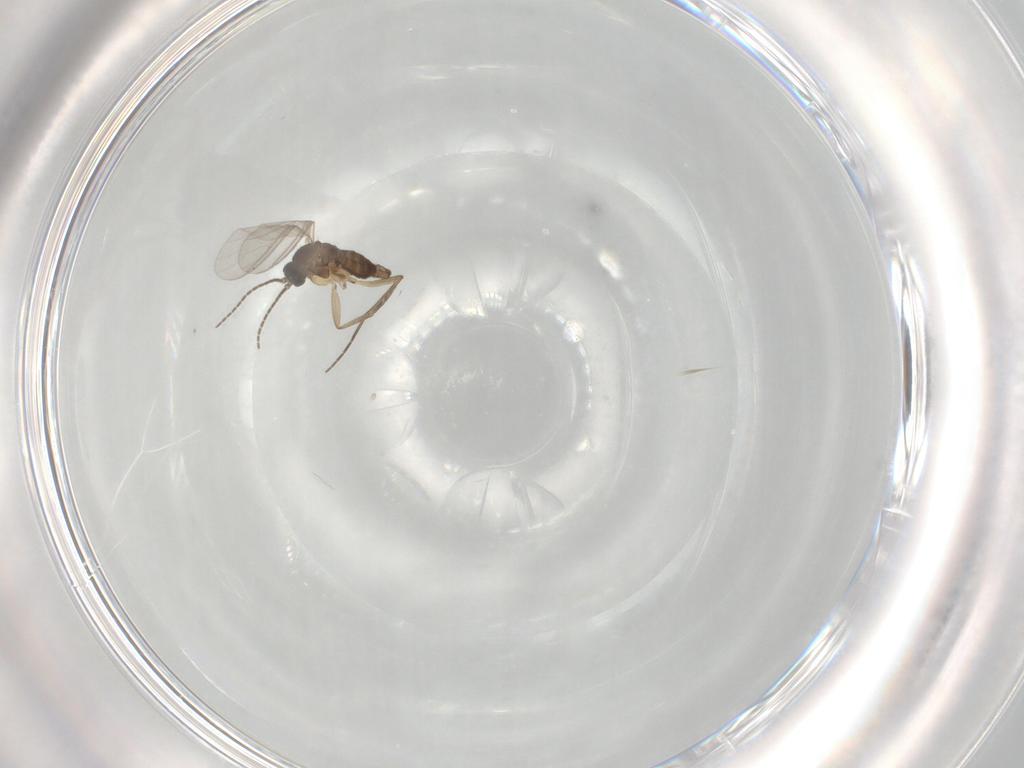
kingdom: Animalia
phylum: Arthropoda
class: Insecta
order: Diptera
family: Sciaridae
